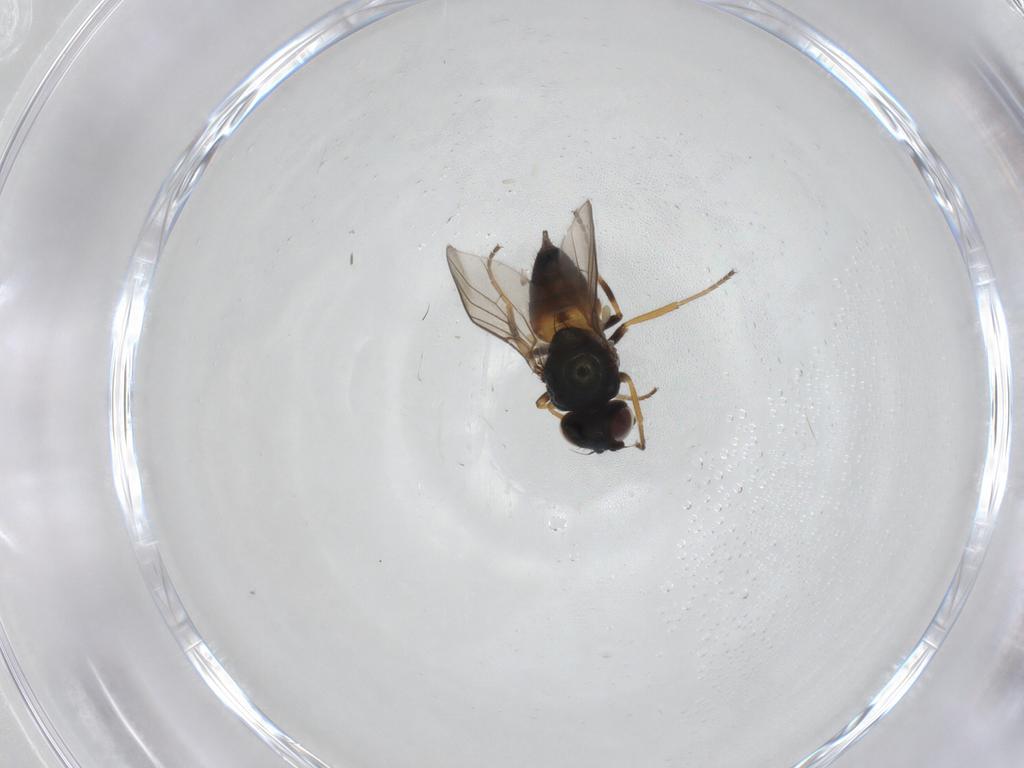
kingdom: Animalia
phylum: Arthropoda
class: Insecta
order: Diptera
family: Chloropidae
